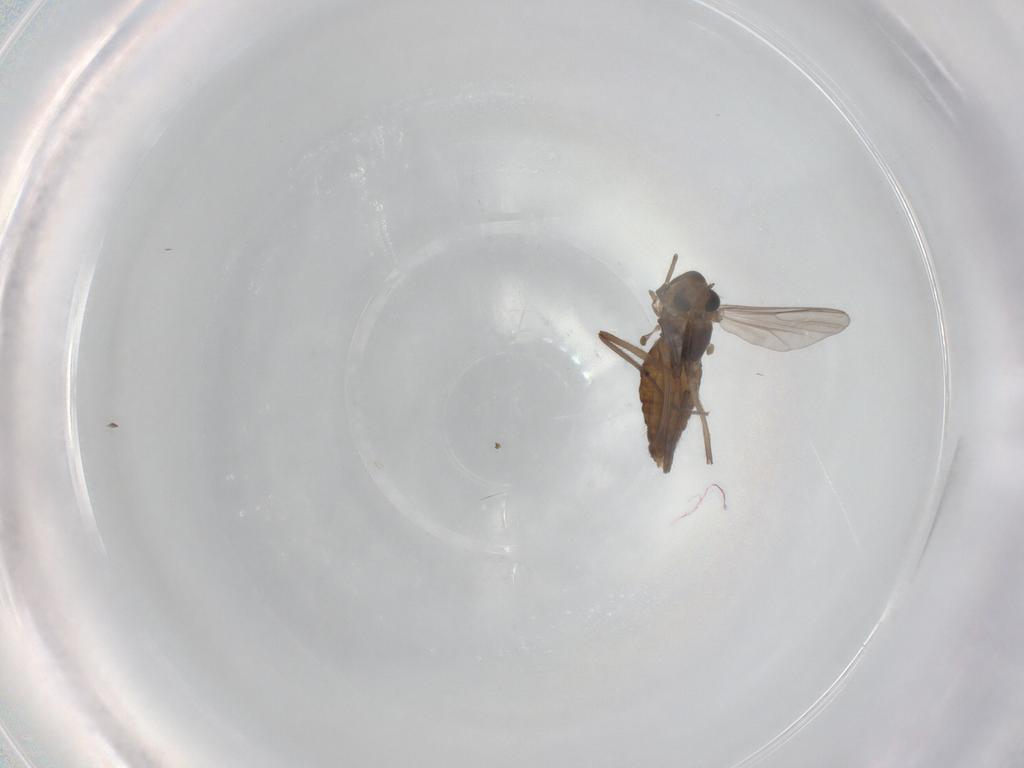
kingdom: Animalia
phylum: Arthropoda
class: Insecta
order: Diptera
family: Chironomidae
